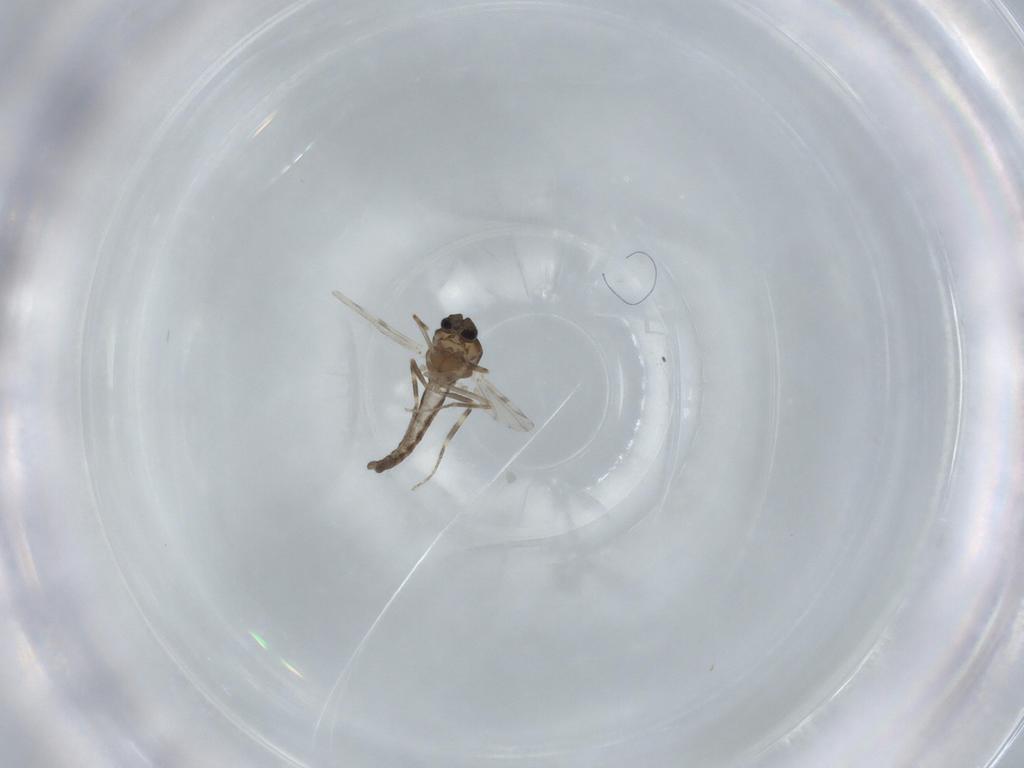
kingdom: Animalia
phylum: Arthropoda
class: Insecta
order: Diptera
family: Ceratopogonidae
